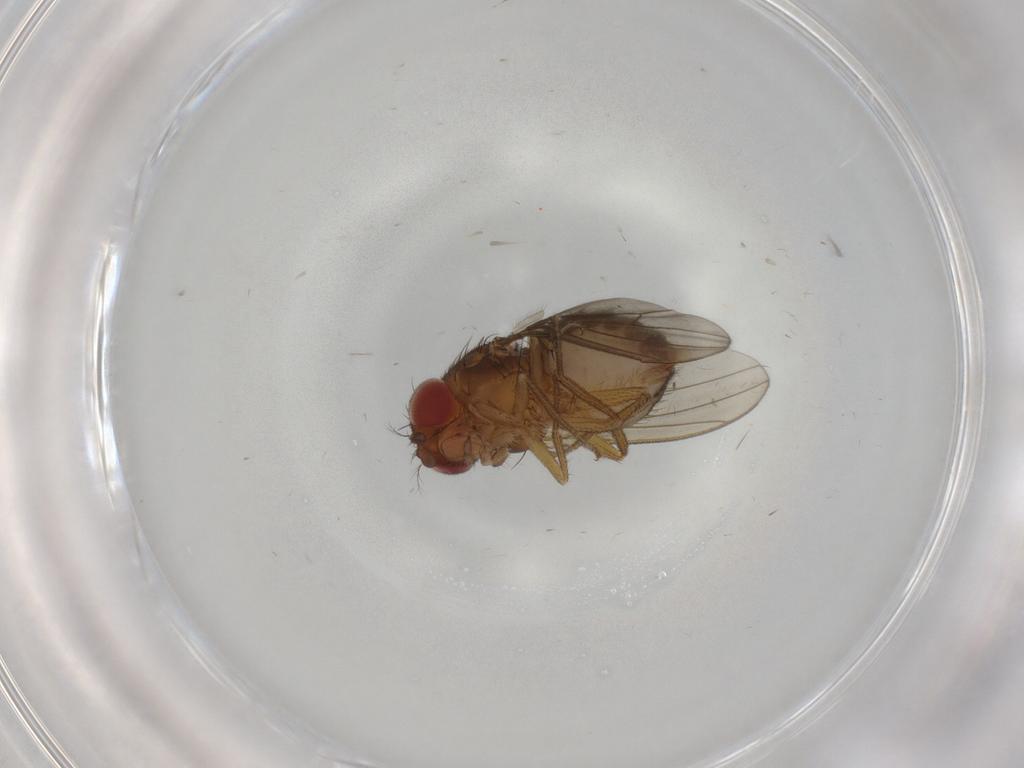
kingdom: Animalia
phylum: Arthropoda
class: Insecta
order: Diptera
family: Drosophilidae
